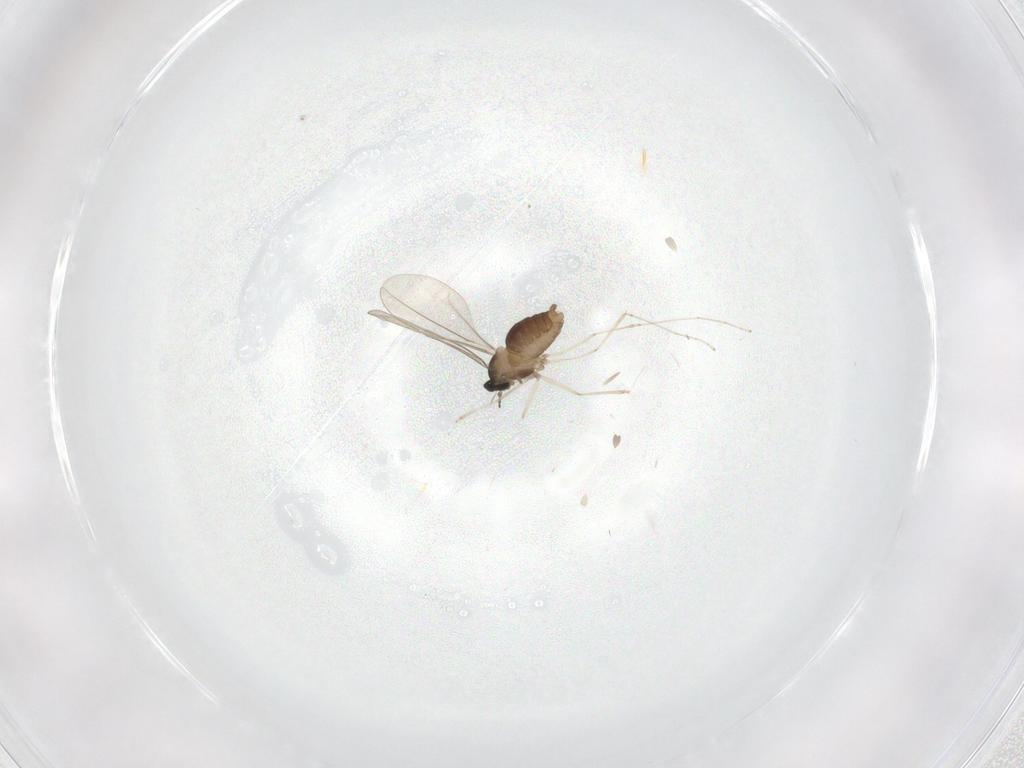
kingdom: Animalia
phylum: Arthropoda
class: Insecta
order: Diptera
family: Cecidomyiidae
